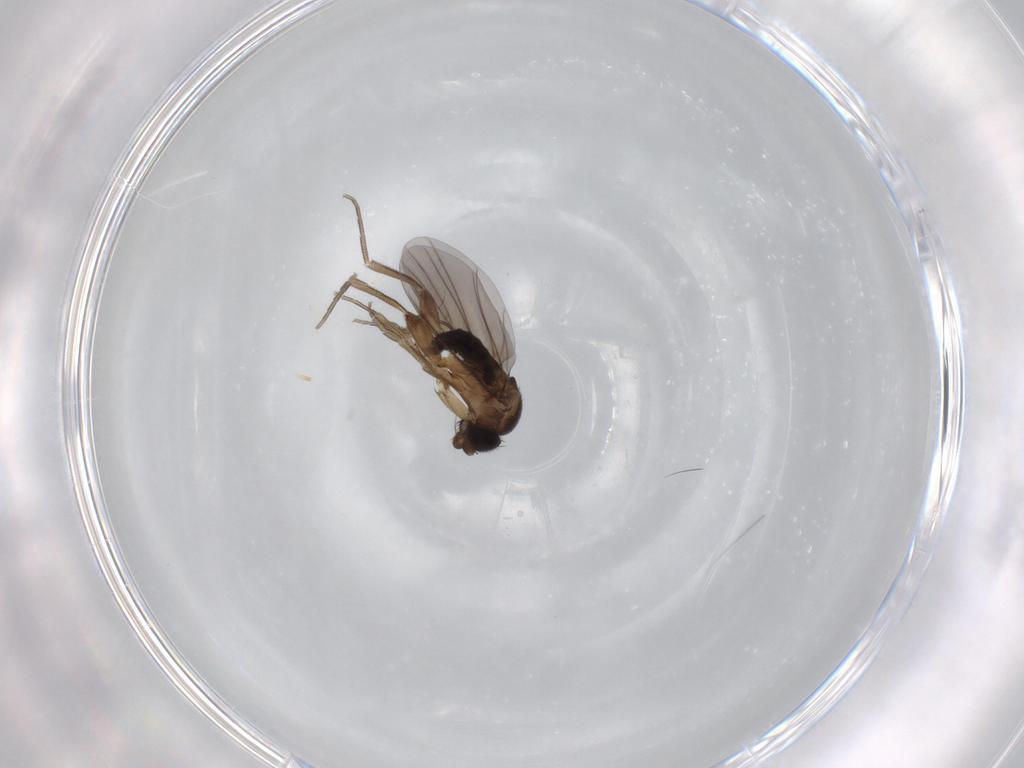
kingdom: Animalia
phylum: Arthropoda
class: Insecta
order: Diptera
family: Phoridae
